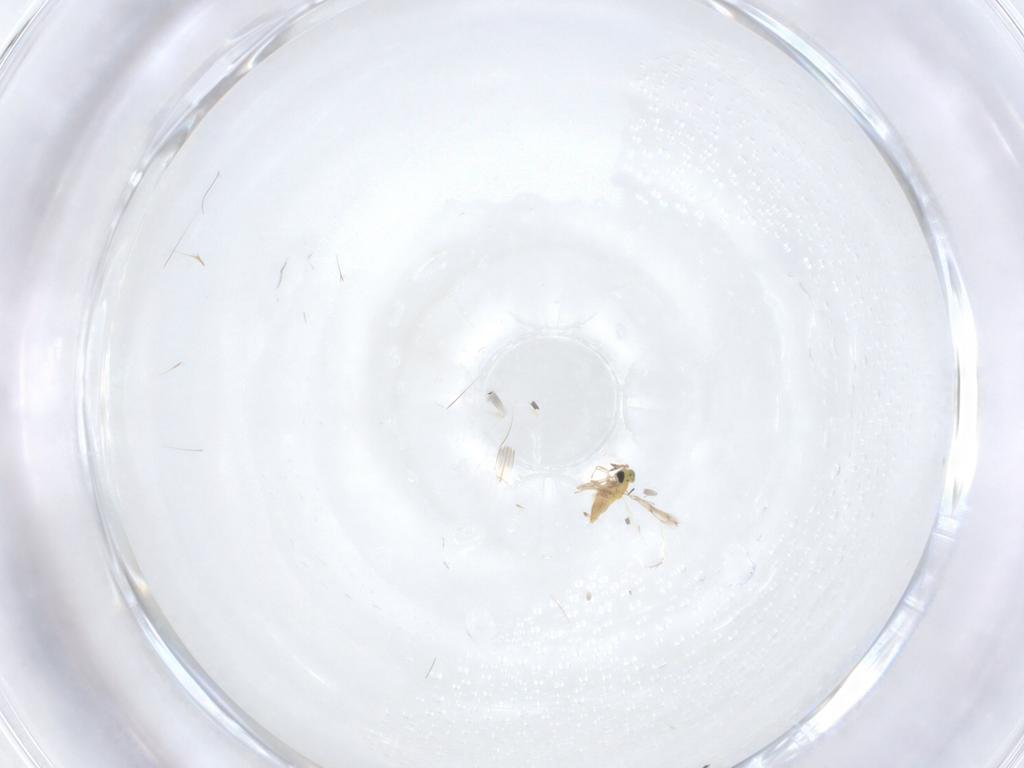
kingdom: Animalia
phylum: Arthropoda
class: Insecta
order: Hymenoptera
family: Trichogrammatidae
